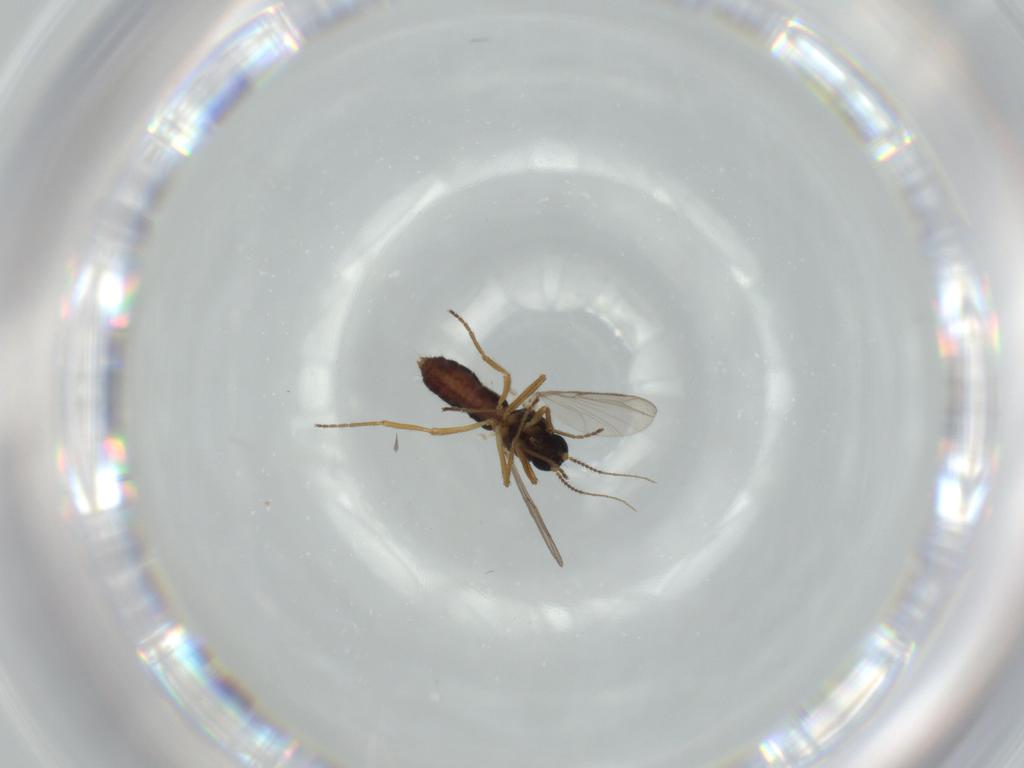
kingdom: Animalia
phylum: Arthropoda
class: Insecta
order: Diptera
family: Ceratopogonidae
